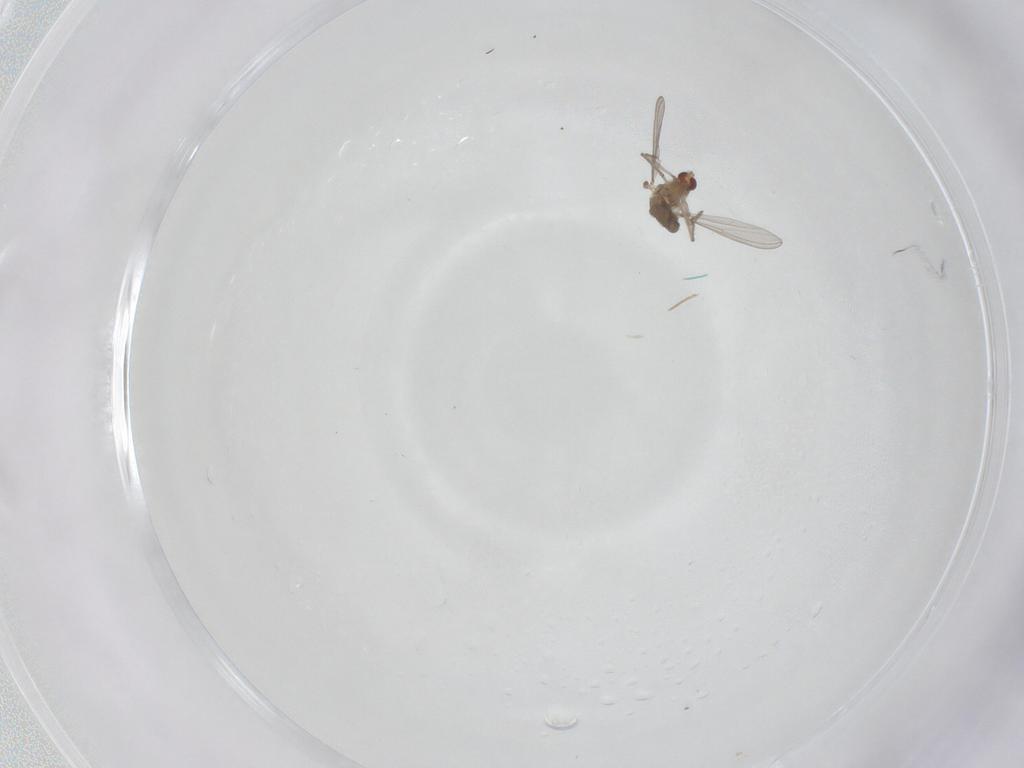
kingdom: Animalia
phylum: Arthropoda
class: Insecta
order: Diptera
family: Chironomidae
